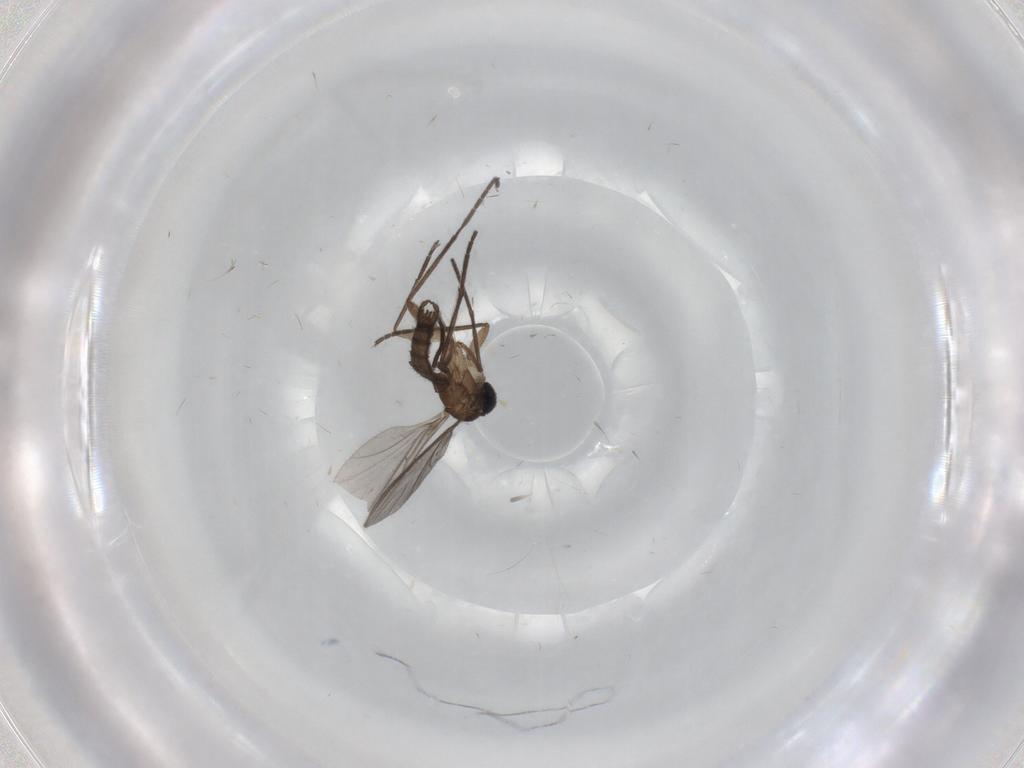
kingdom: Animalia
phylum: Arthropoda
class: Insecta
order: Diptera
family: Sciaridae
